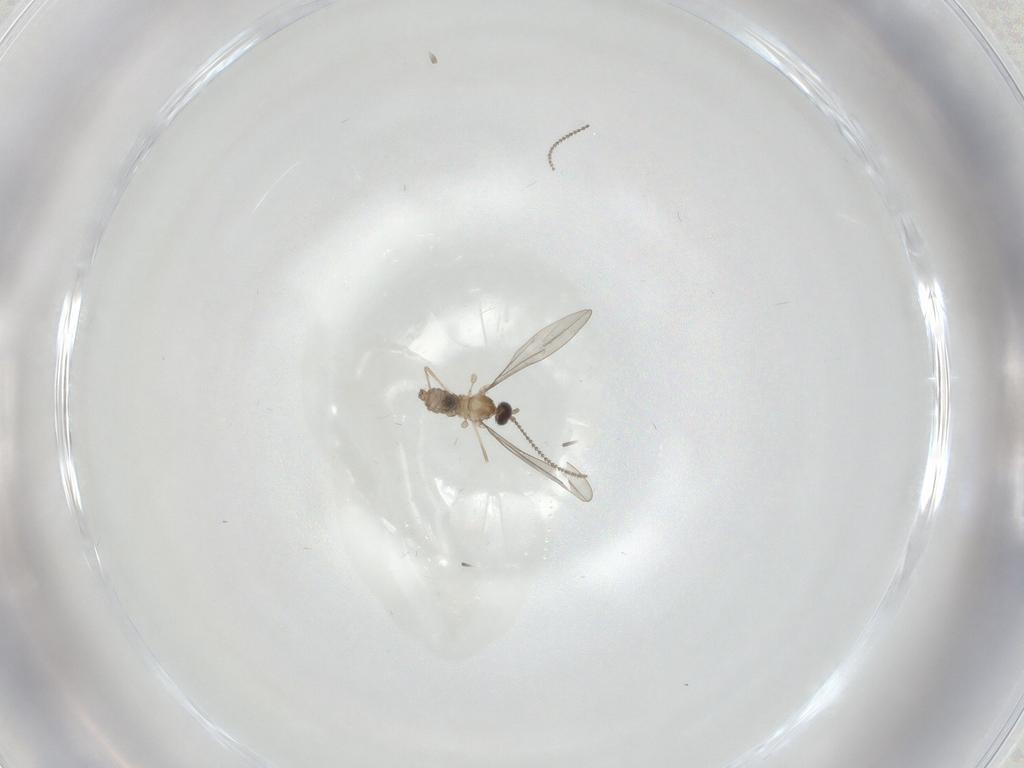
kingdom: Animalia
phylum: Arthropoda
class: Insecta
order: Diptera
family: Cecidomyiidae
